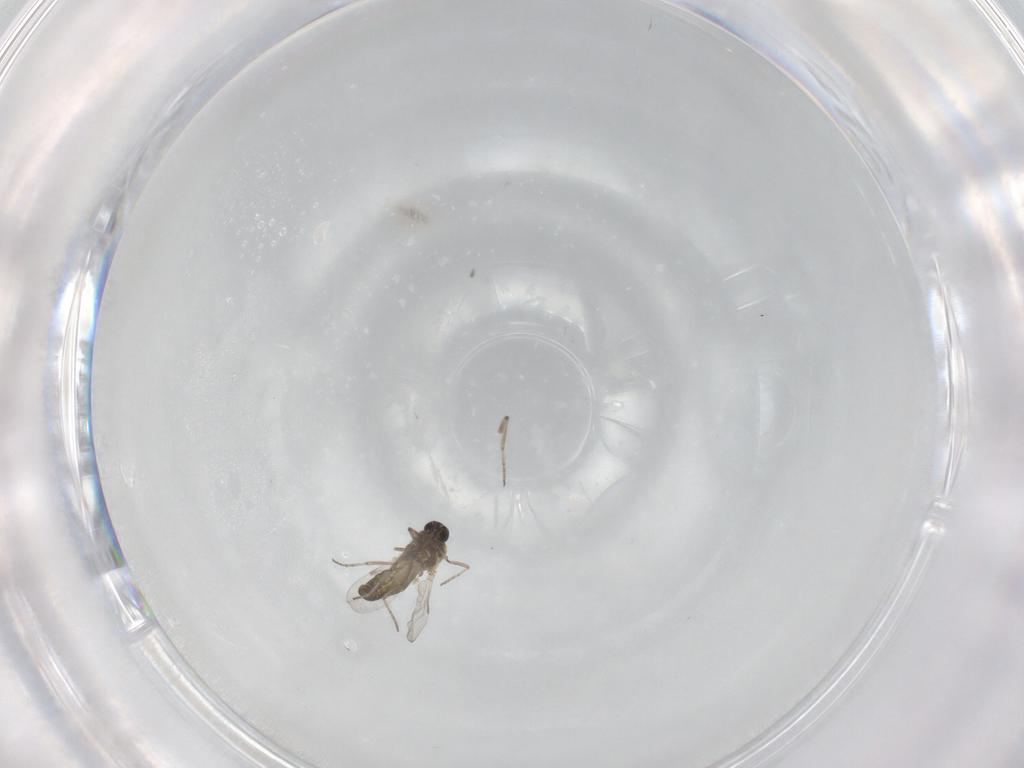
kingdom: Animalia
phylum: Arthropoda
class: Insecta
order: Diptera
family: Ceratopogonidae
